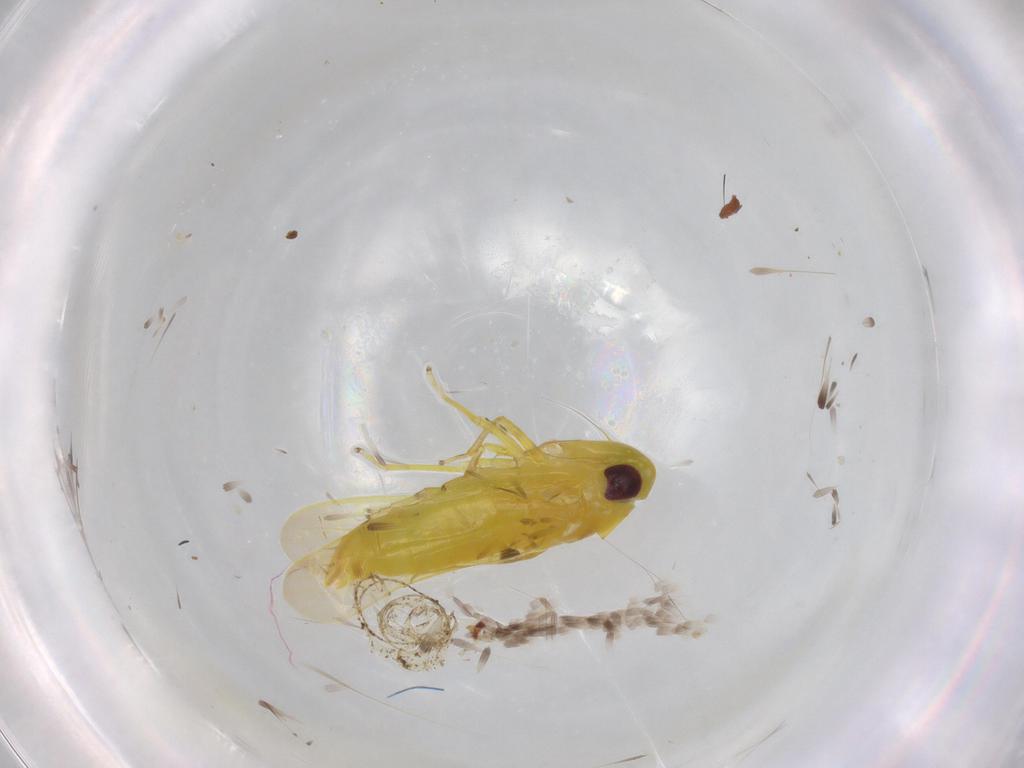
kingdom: Animalia
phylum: Arthropoda
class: Insecta
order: Hemiptera
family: Cicadellidae
